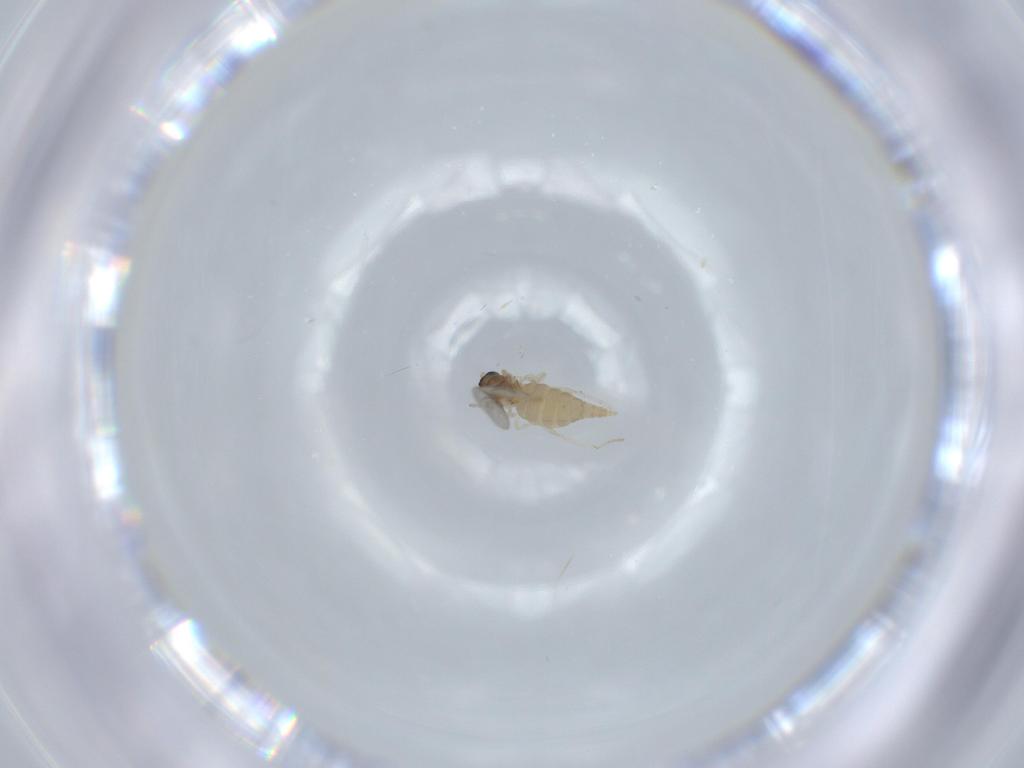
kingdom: Animalia
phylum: Arthropoda
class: Insecta
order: Diptera
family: Cecidomyiidae
